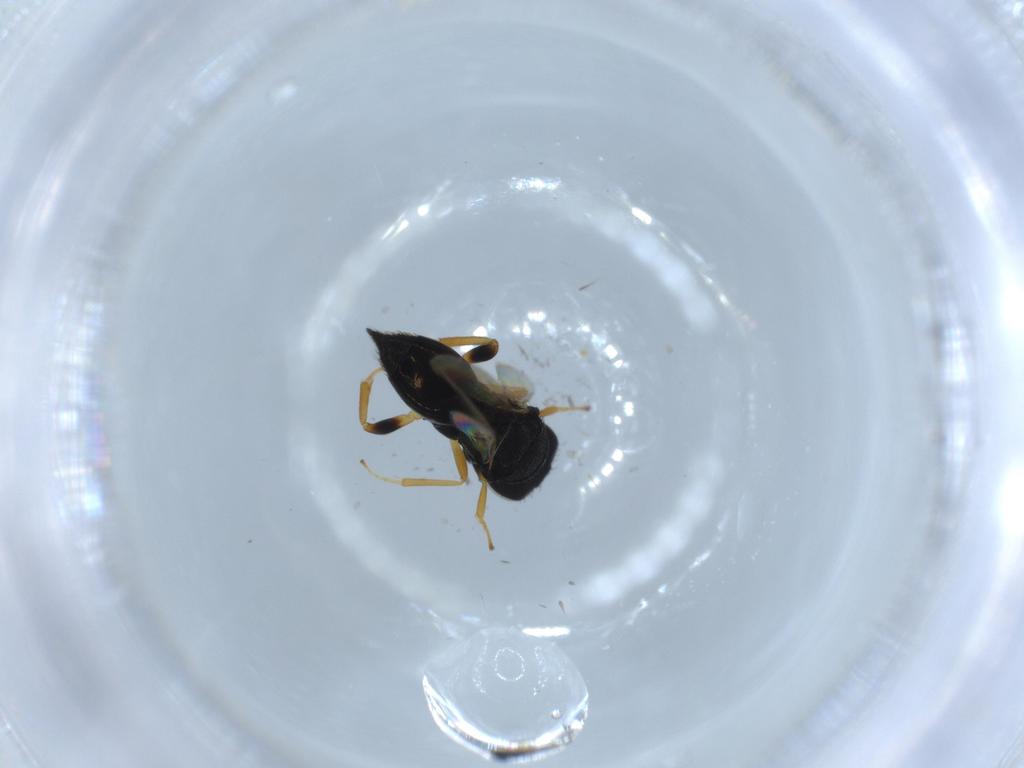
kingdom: Animalia
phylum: Arthropoda
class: Insecta
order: Hymenoptera
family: Pteromalidae
